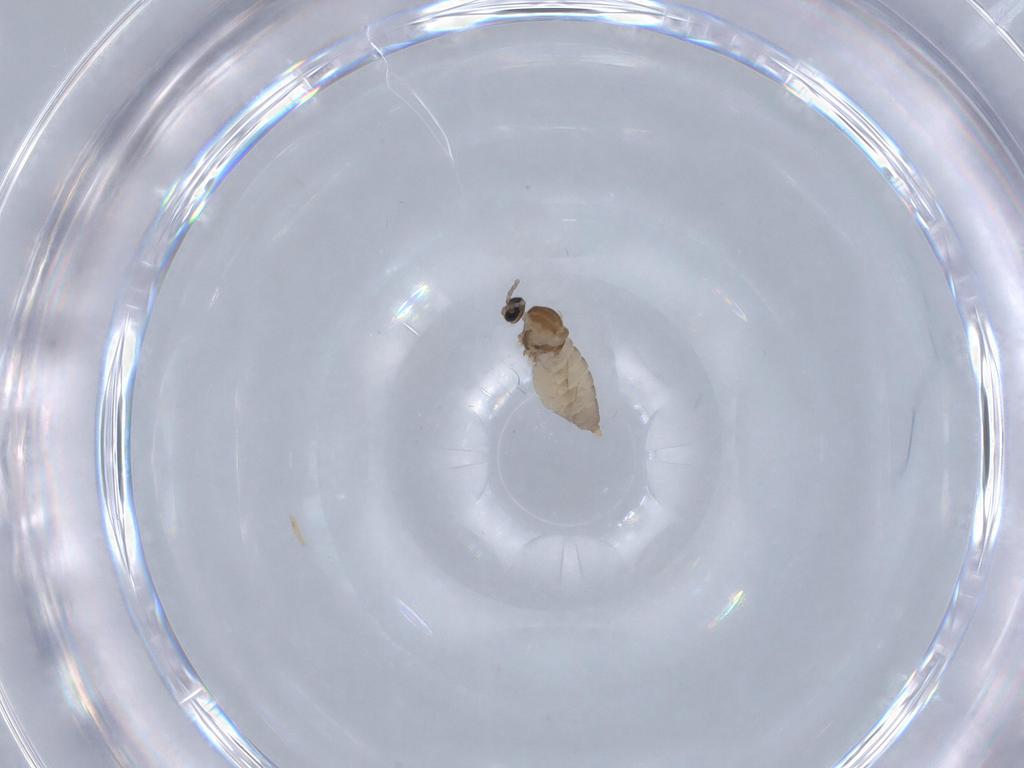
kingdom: Animalia
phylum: Arthropoda
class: Insecta
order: Diptera
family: Cecidomyiidae
